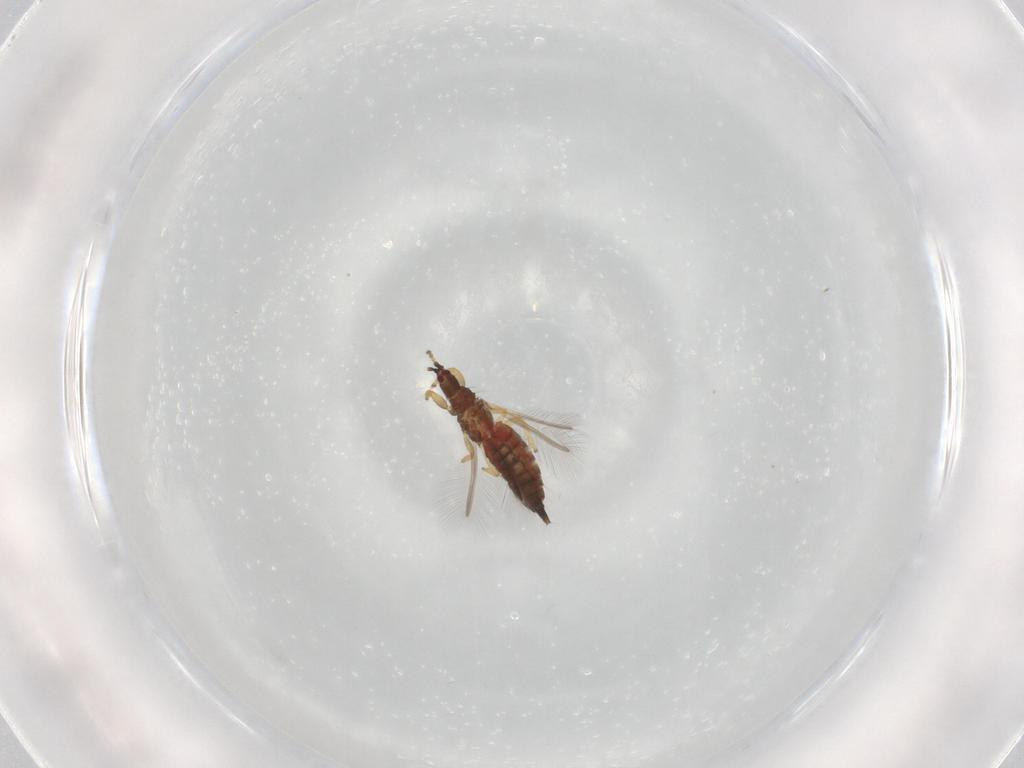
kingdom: Animalia
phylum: Arthropoda
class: Insecta
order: Thysanoptera
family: Phlaeothripidae
